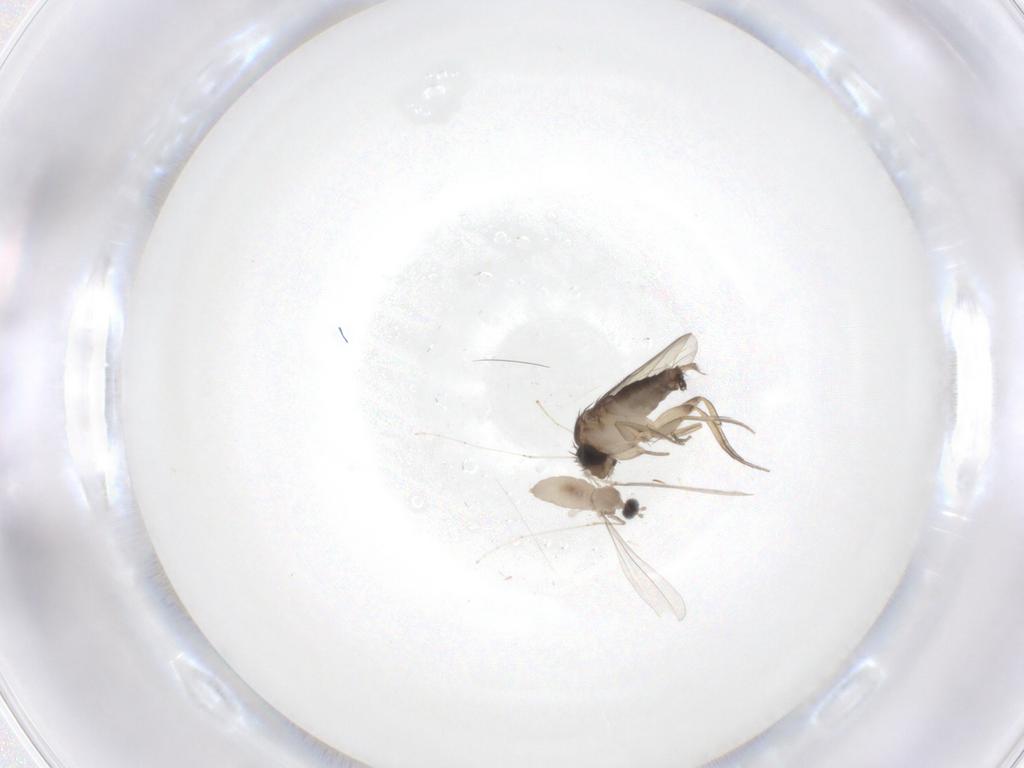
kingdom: Animalia
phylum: Arthropoda
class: Insecta
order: Diptera
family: Cecidomyiidae
